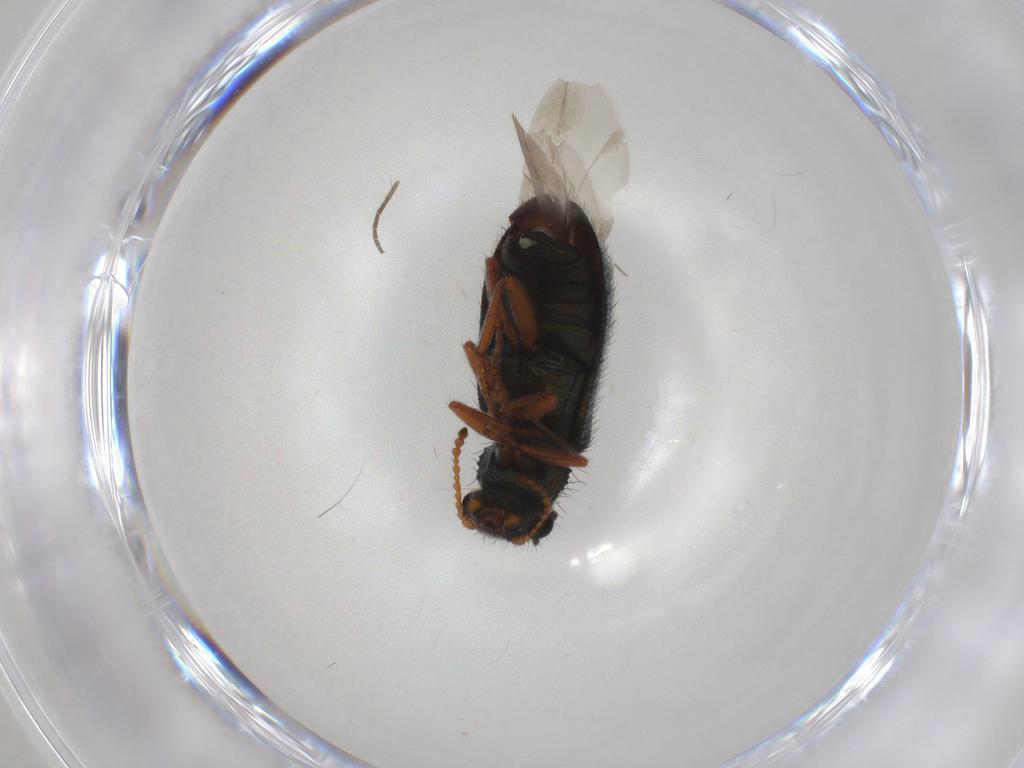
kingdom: Animalia
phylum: Arthropoda
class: Insecta
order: Coleoptera
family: Melyridae
